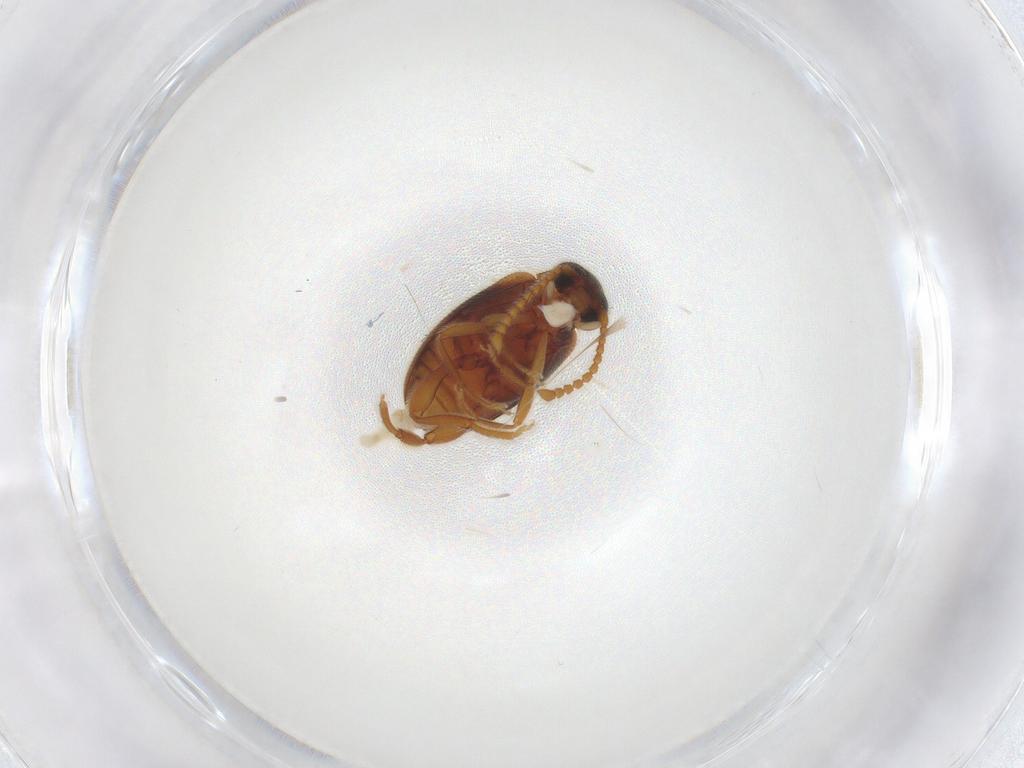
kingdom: Animalia
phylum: Arthropoda
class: Insecta
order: Coleoptera
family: Aderidae
